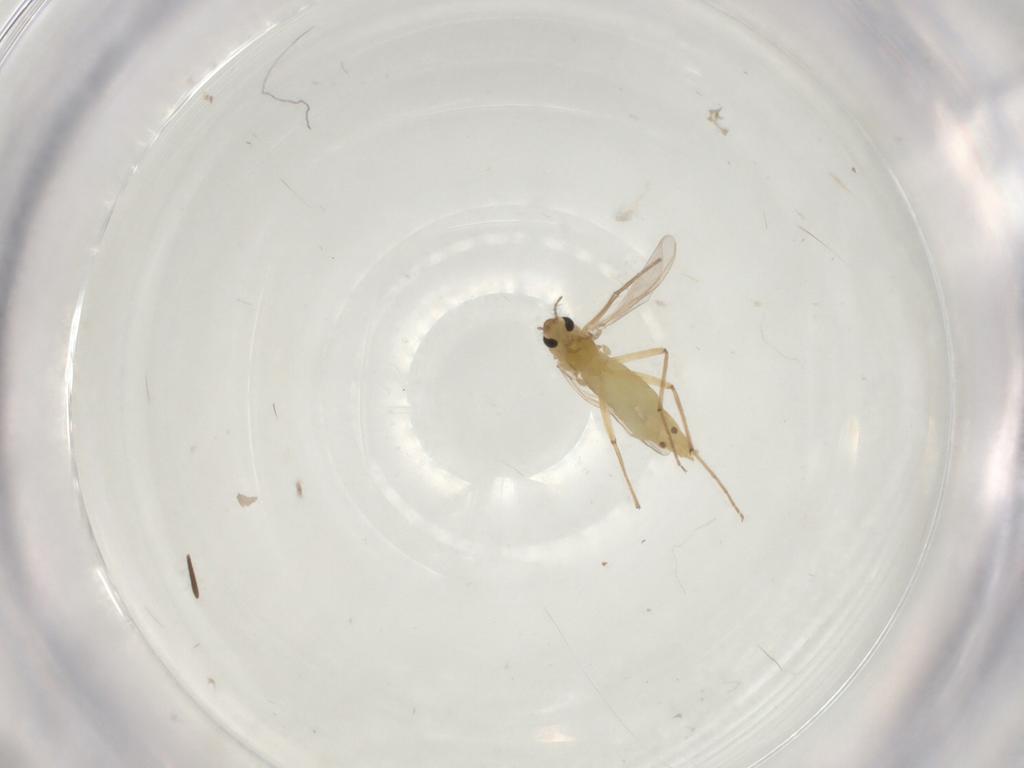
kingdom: Animalia
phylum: Arthropoda
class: Insecta
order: Diptera
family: Chironomidae
